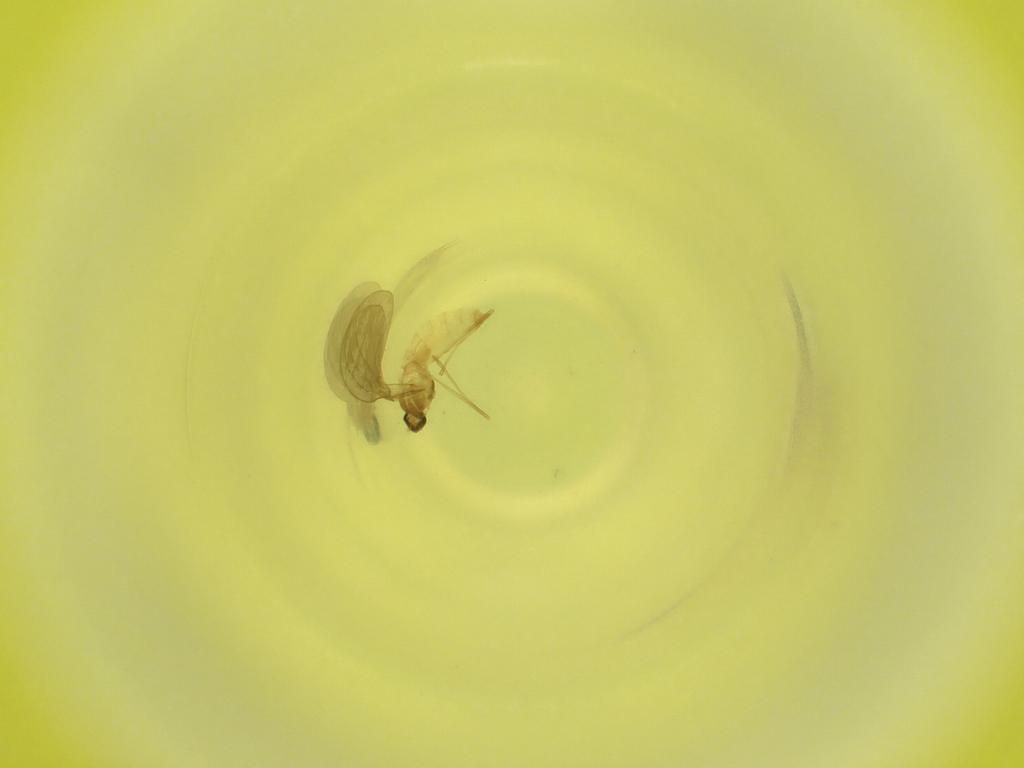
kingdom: Animalia
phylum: Arthropoda
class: Insecta
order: Diptera
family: Cecidomyiidae
